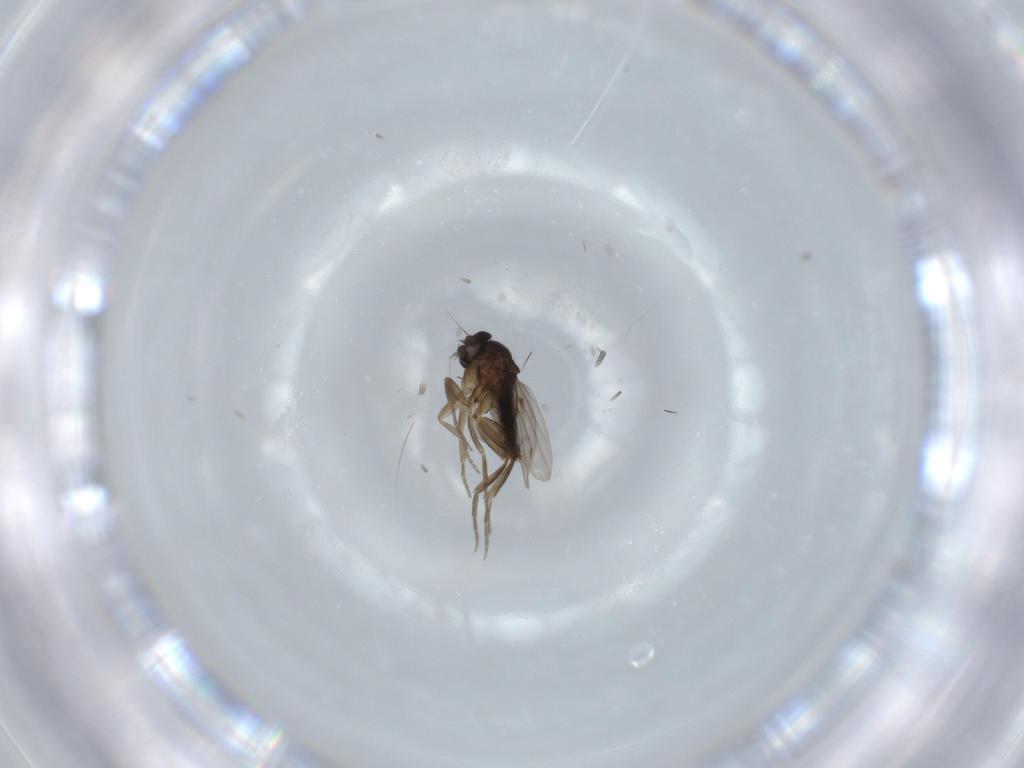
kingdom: Animalia
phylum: Arthropoda
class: Insecta
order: Diptera
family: Phoridae
